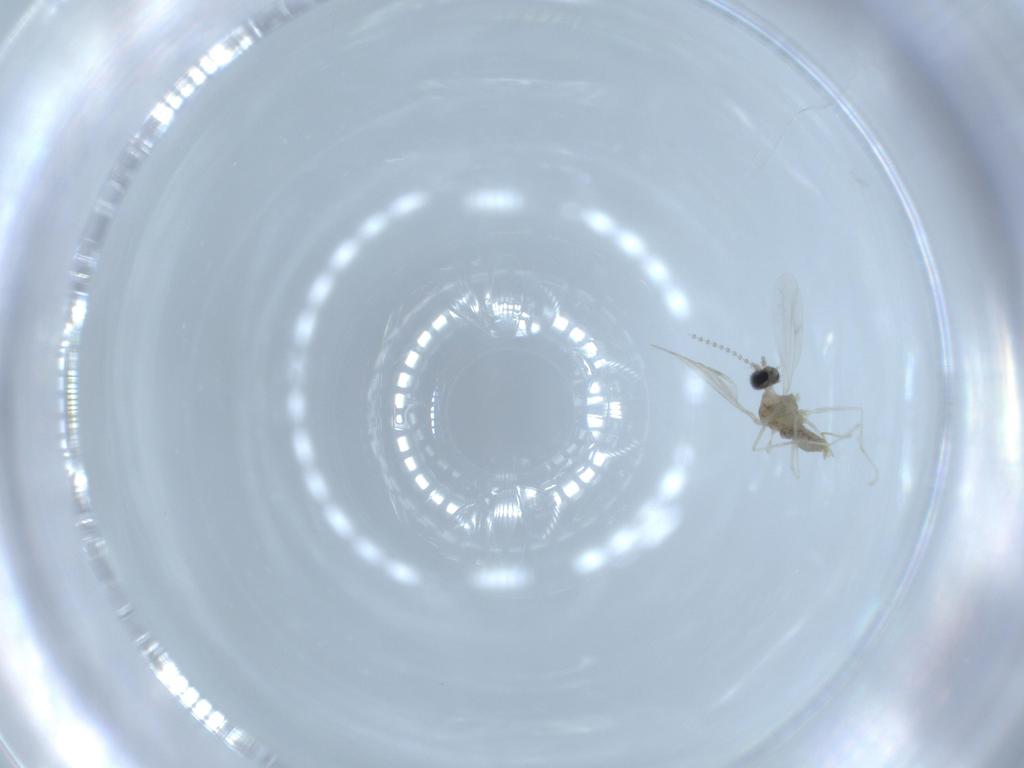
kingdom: Animalia
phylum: Arthropoda
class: Insecta
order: Diptera
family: Cecidomyiidae
